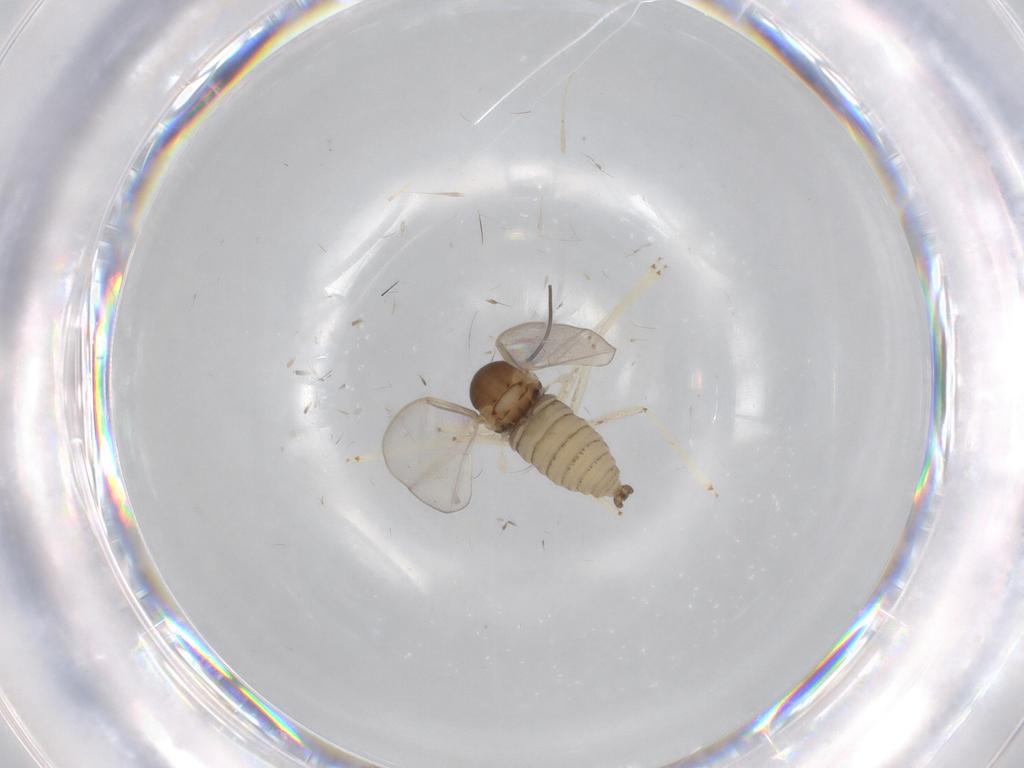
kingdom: Animalia
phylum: Arthropoda
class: Insecta
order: Diptera
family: Cecidomyiidae
